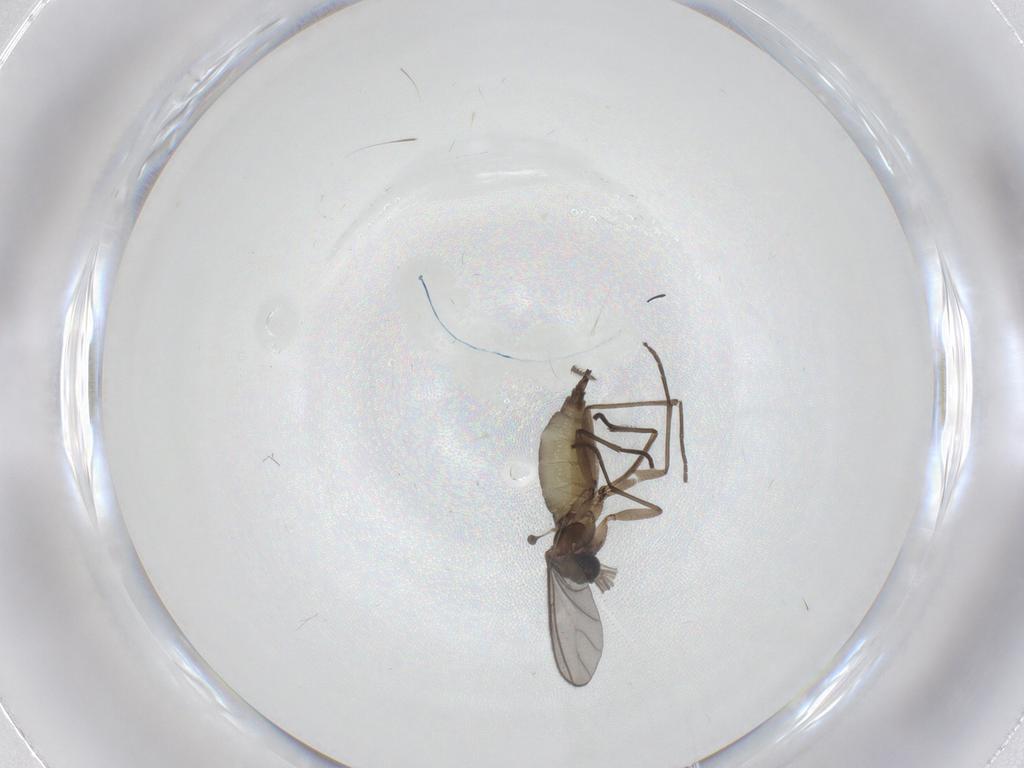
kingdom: Animalia
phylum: Arthropoda
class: Insecta
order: Diptera
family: Sciaridae
